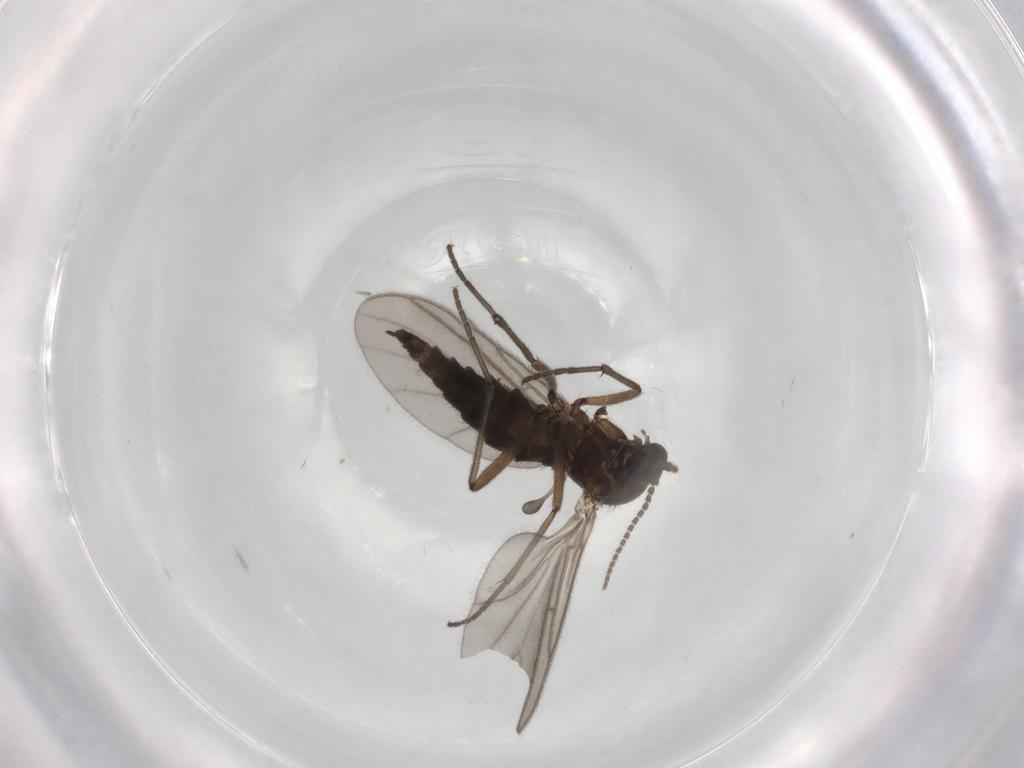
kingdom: Animalia
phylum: Arthropoda
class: Insecta
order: Diptera
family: Sciaridae
